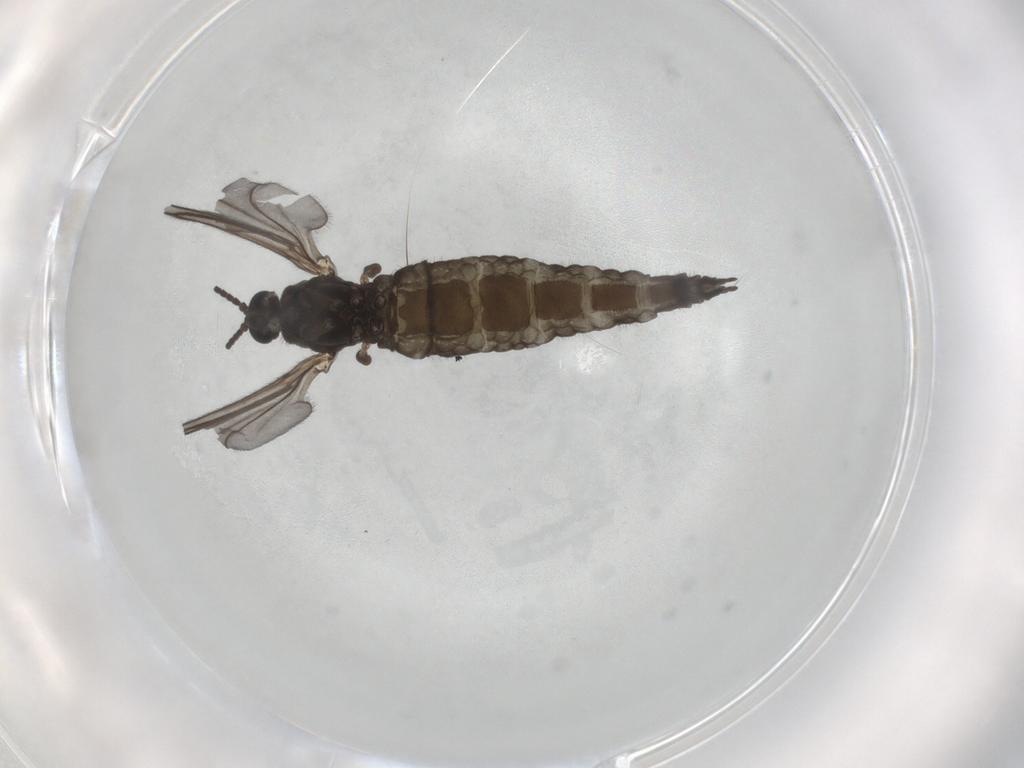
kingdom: Animalia
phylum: Arthropoda
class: Insecta
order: Diptera
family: Sciaridae
